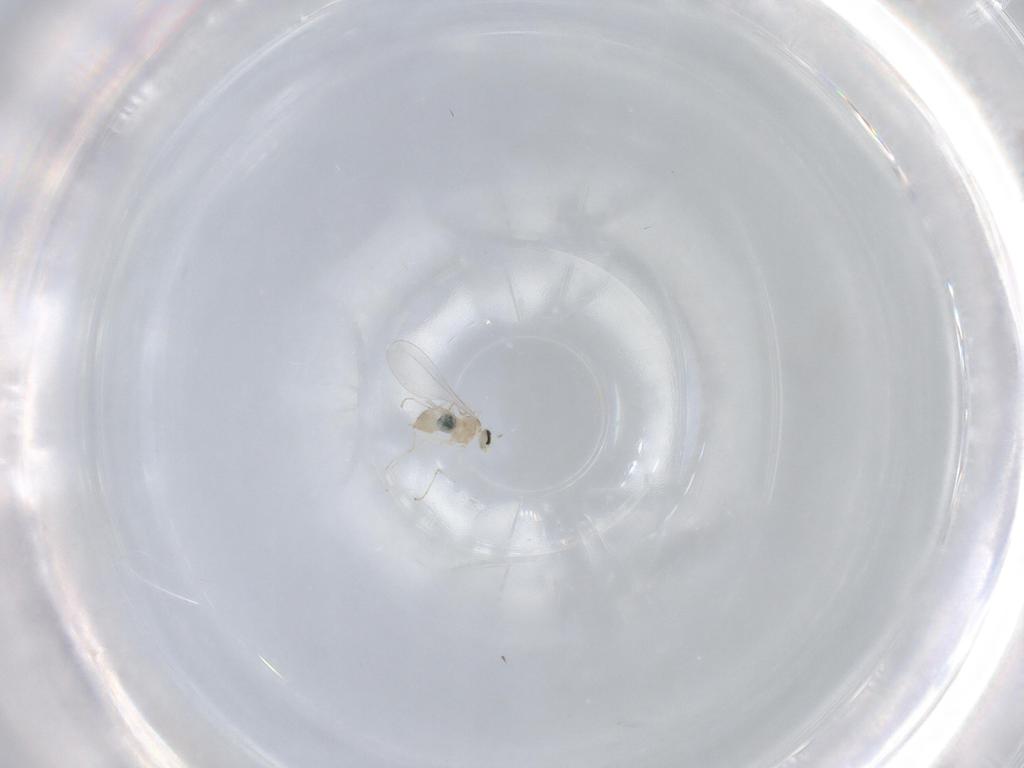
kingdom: Animalia
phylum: Arthropoda
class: Insecta
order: Diptera
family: Cecidomyiidae
